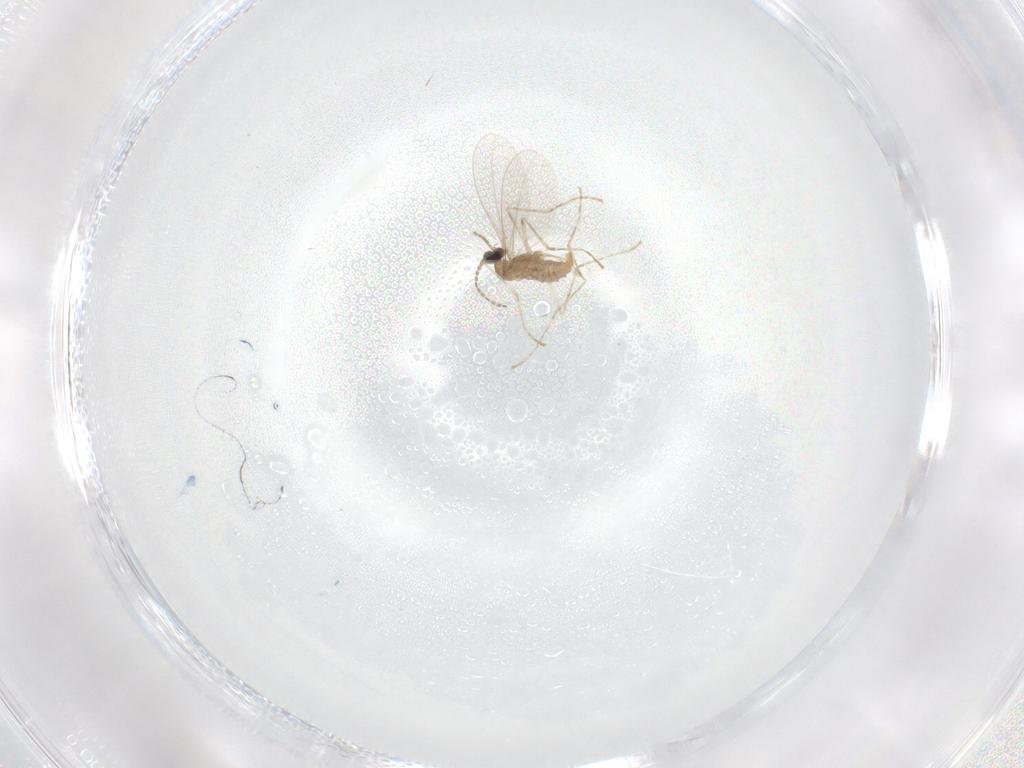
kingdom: Animalia
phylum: Arthropoda
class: Insecta
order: Diptera
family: Cecidomyiidae
